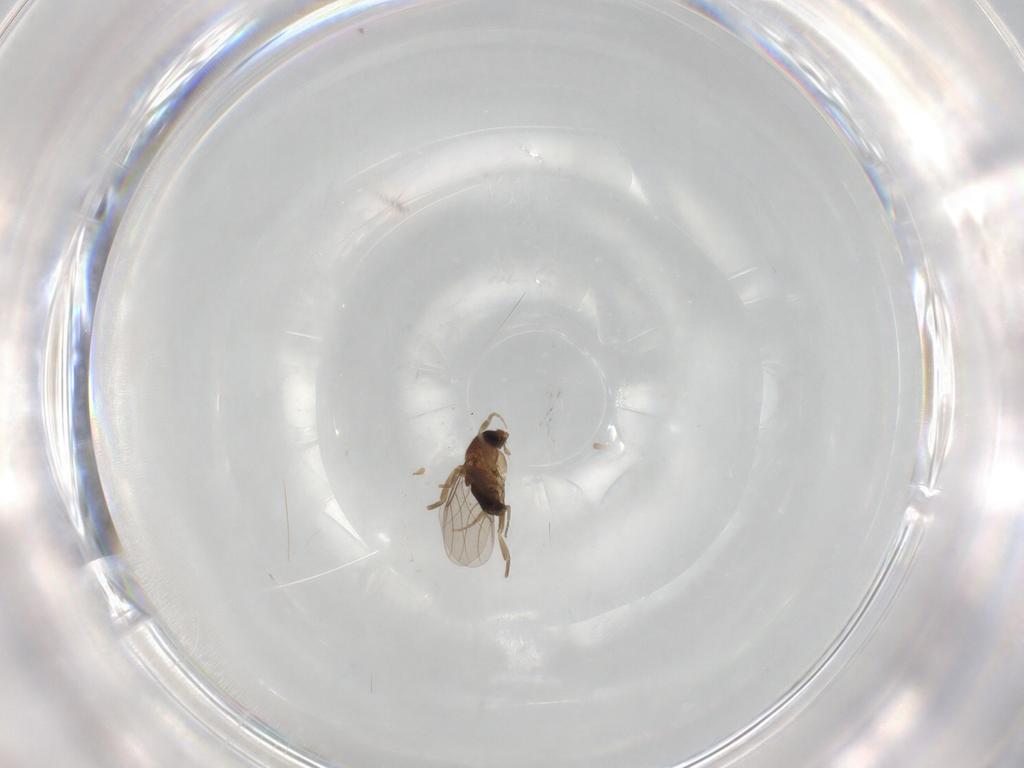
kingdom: Animalia
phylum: Arthropoda
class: Insecta
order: Diptera
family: Phoridae
